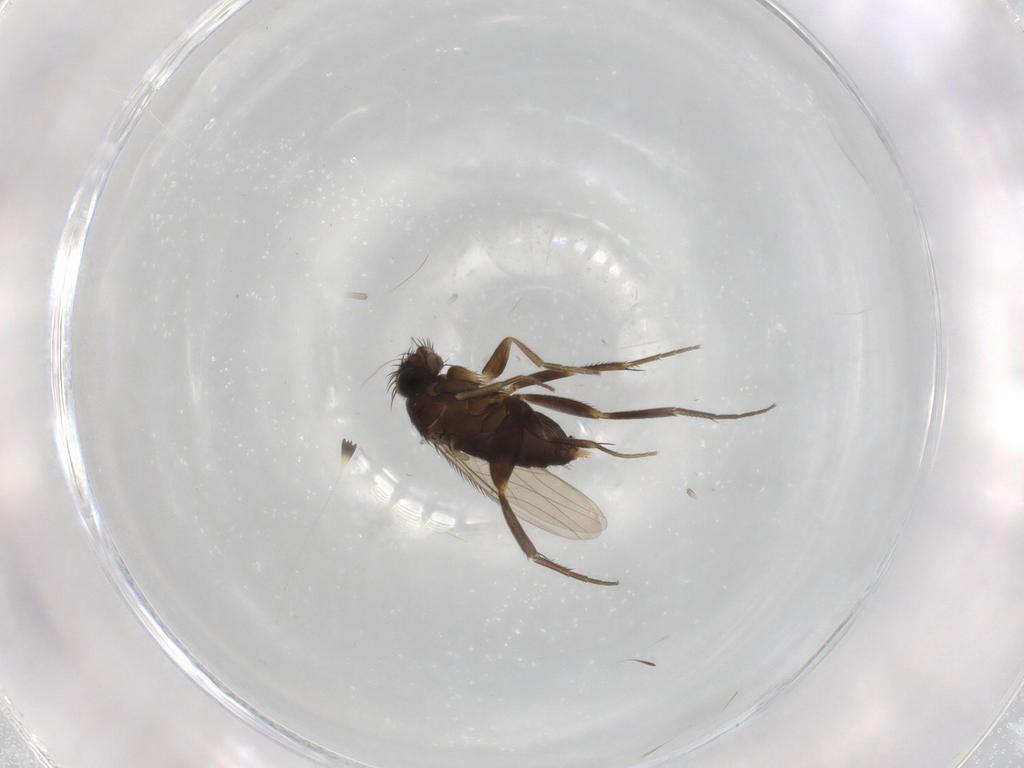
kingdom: Animalia
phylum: Arthropoda
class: Insecta
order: Diptera
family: Phoridae
